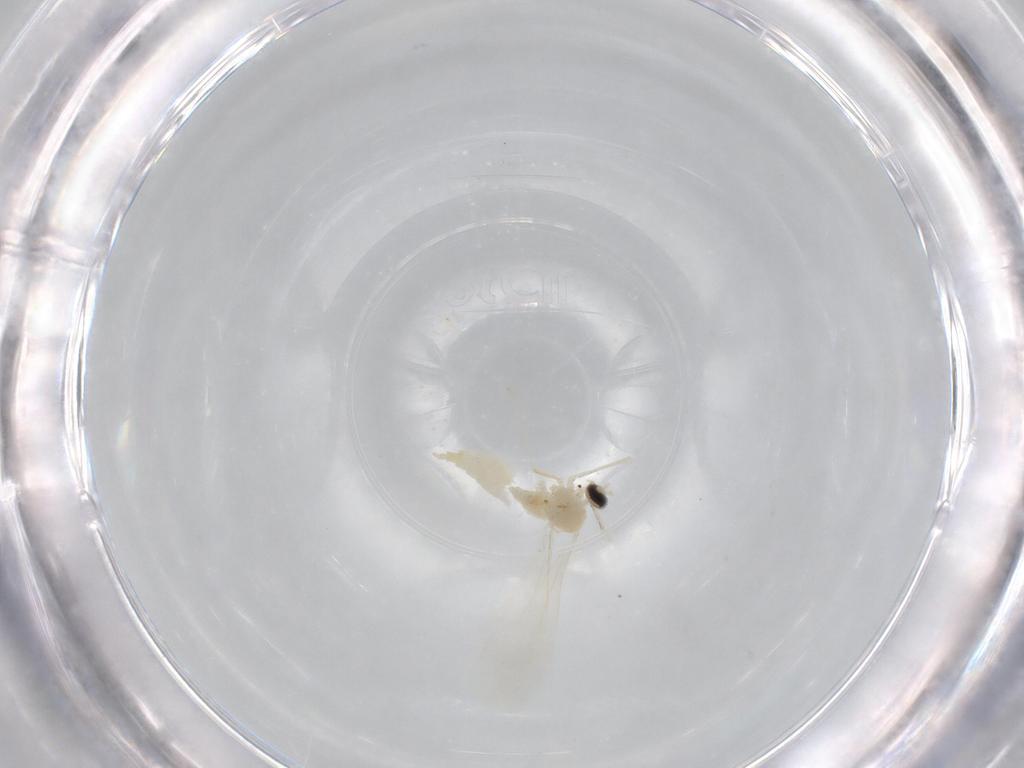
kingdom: Animalia
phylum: Arthropoda
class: Insecta
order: Diptera
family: Cecidomyiidae
